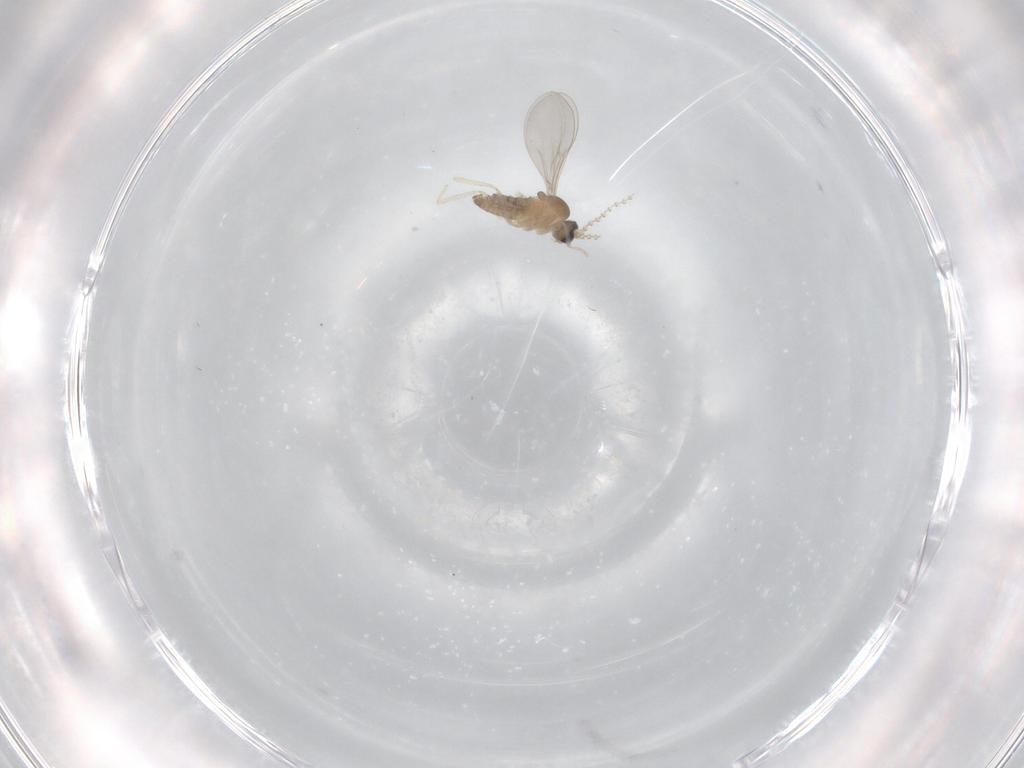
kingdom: Animalia
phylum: Arthropoda
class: Insecta
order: Diptera
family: Cecidomyiidae
